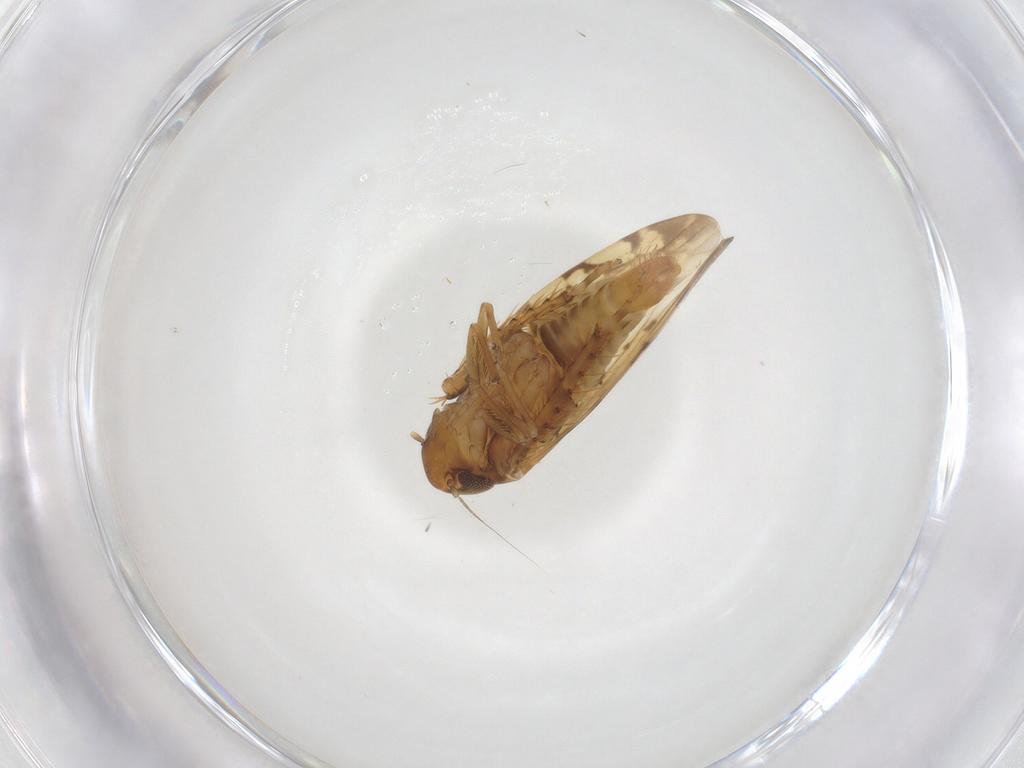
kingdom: Animalia
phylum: Arthropoda
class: Insecta
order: Hemiptera
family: Cicadellidae
